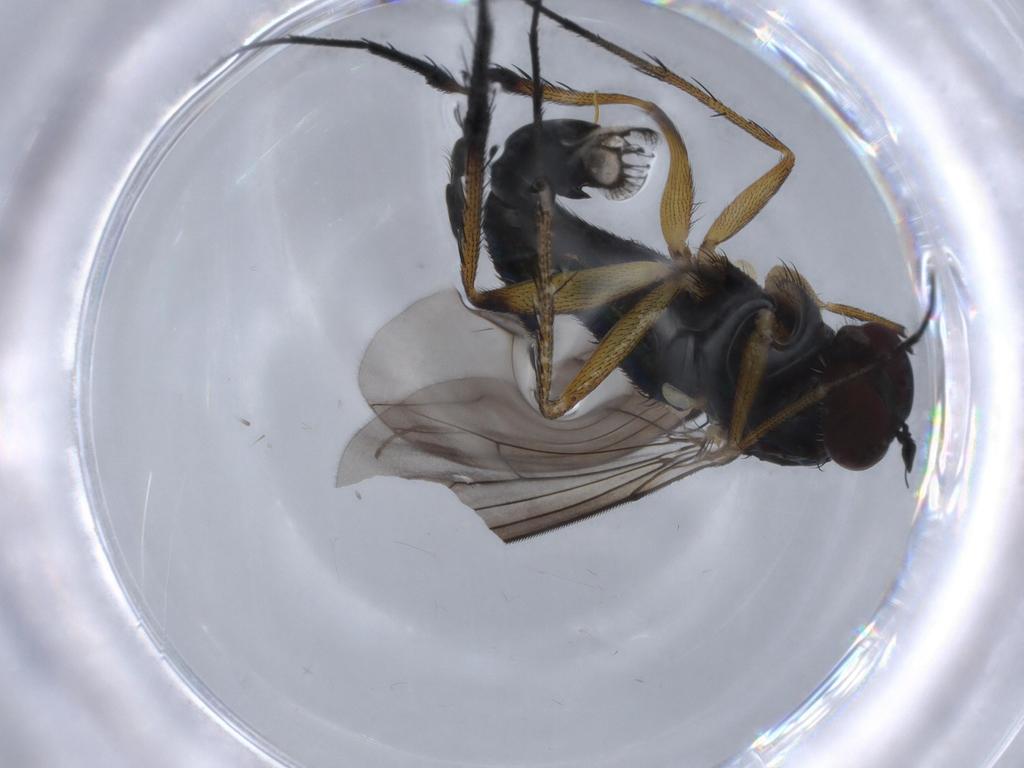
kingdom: Animalia
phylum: Arthropoda
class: Insecta
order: Diptera
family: Dolichopodidae
